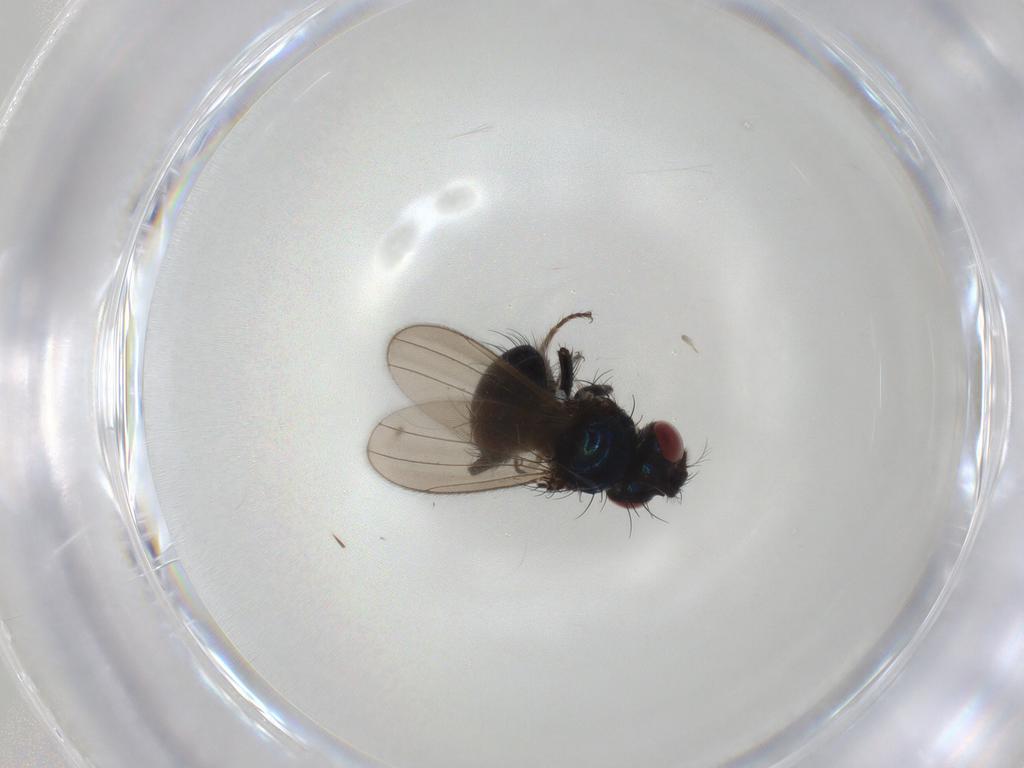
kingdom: Animalia
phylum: Arthropoda
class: Insecta
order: Diptera
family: Ephydridae
